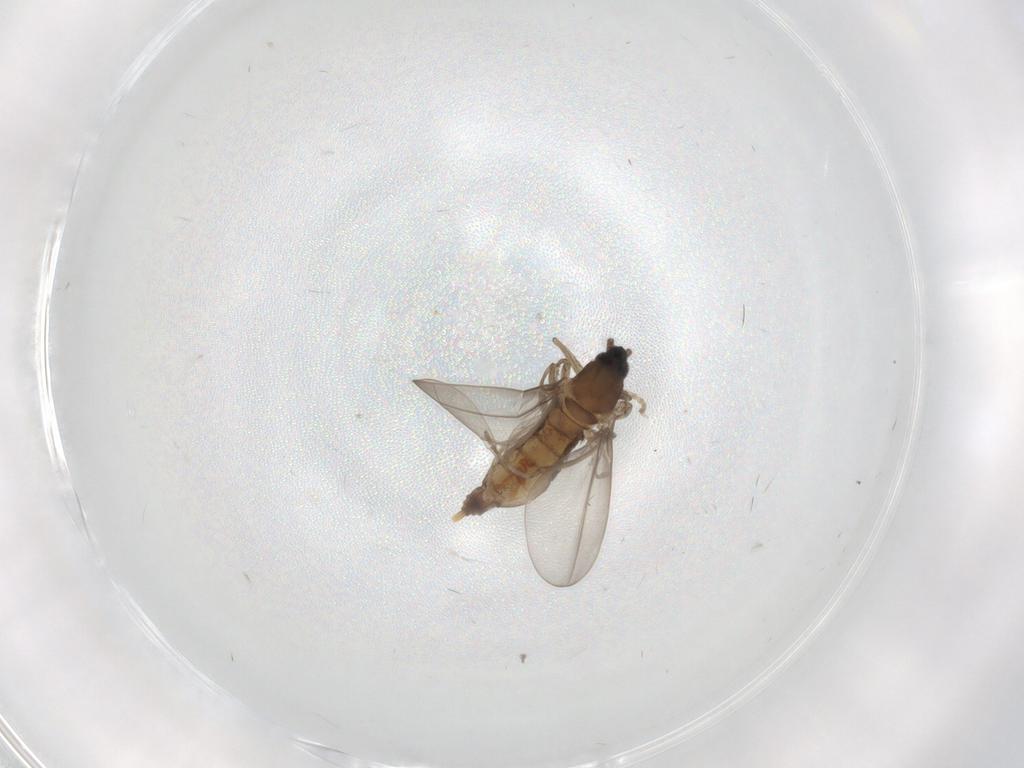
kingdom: Animalia
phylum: Arthropoda
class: Insecta
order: Diptera
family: Cecidomyiidae
